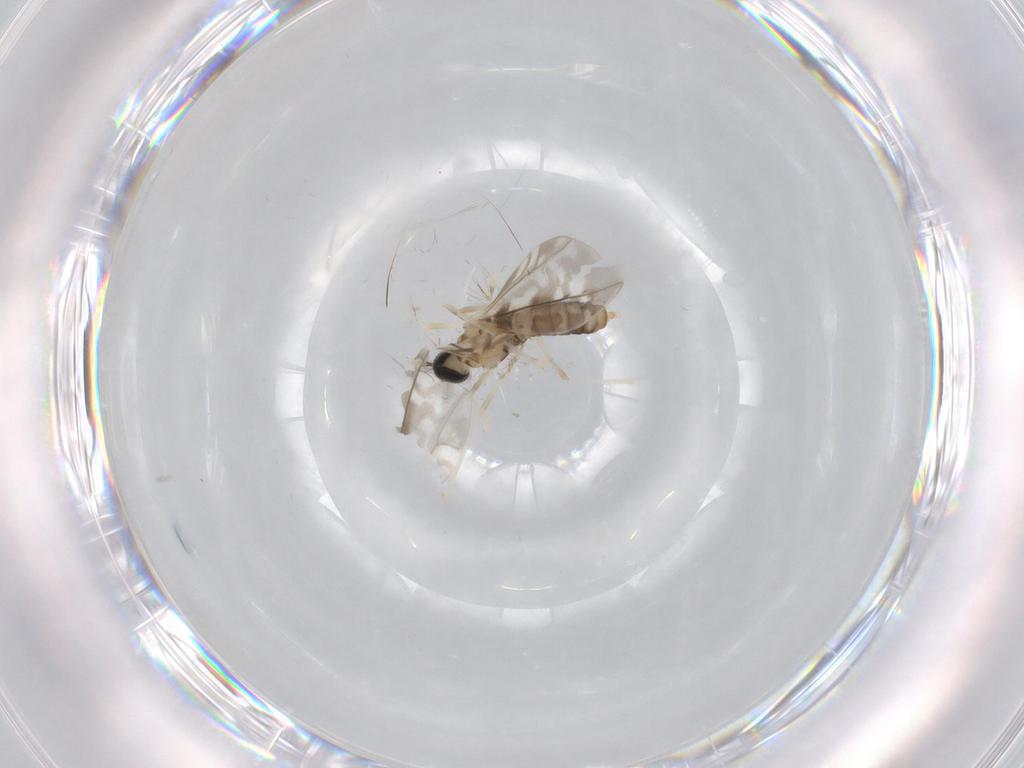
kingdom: Animalia
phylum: Arthropoda
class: Insecta
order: Diptera
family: Cecidomyiidae
